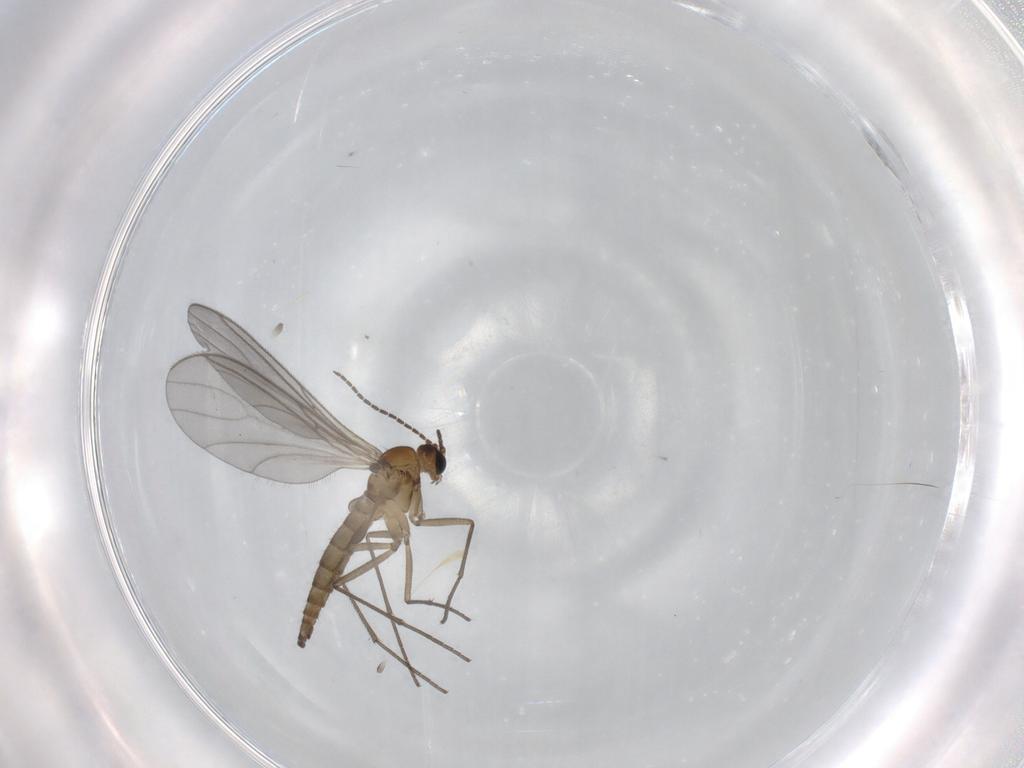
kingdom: Animalia
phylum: Arthropoda
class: Insecta
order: Diptera
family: Sciaridae
